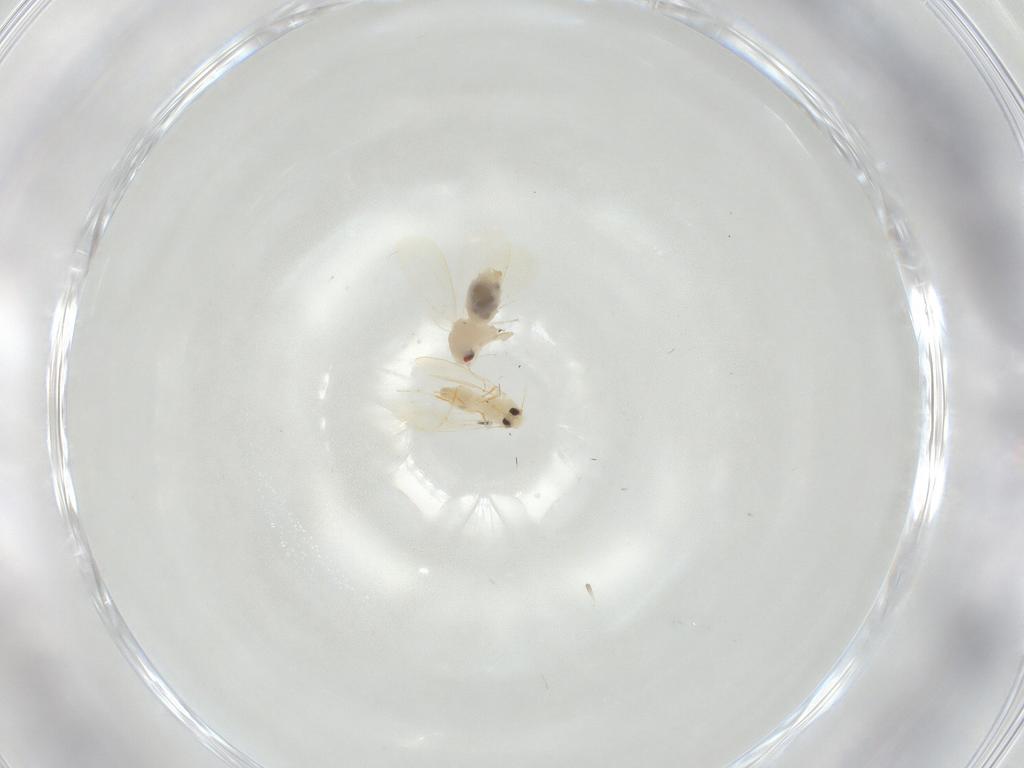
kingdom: Animalia
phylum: Arthropoda
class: Insecta
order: Hemiptera
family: Aleyrodidae
